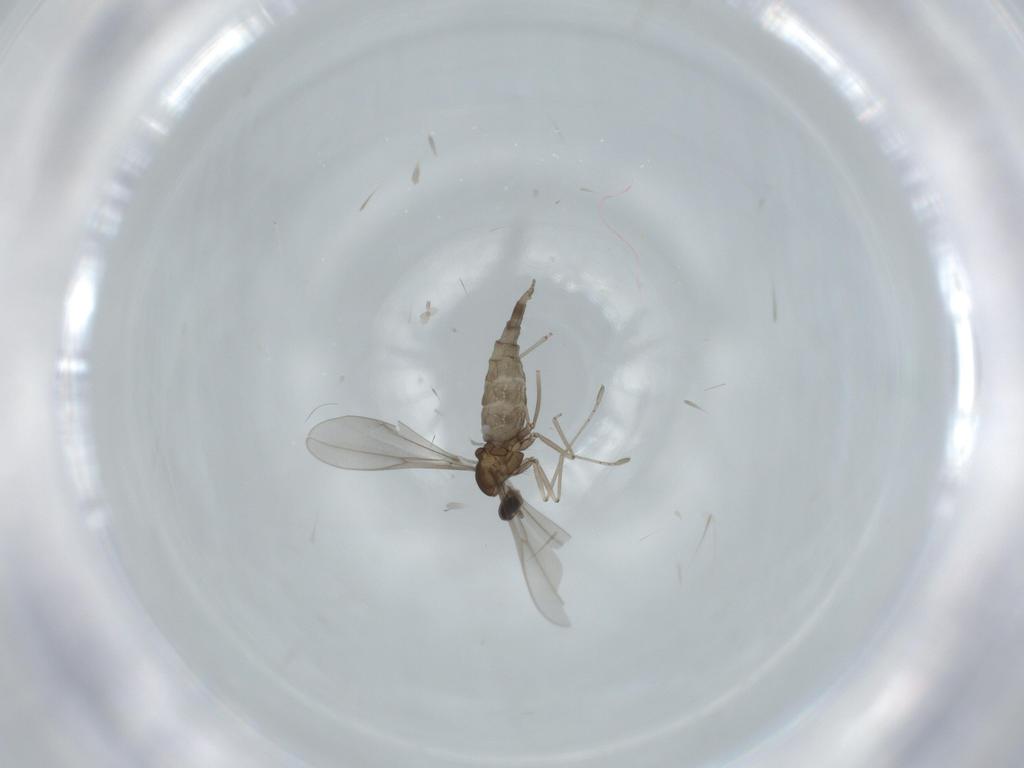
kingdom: Animalia
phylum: Arthropoda
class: Insecta
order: Diptera
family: Cecidomyiidae
